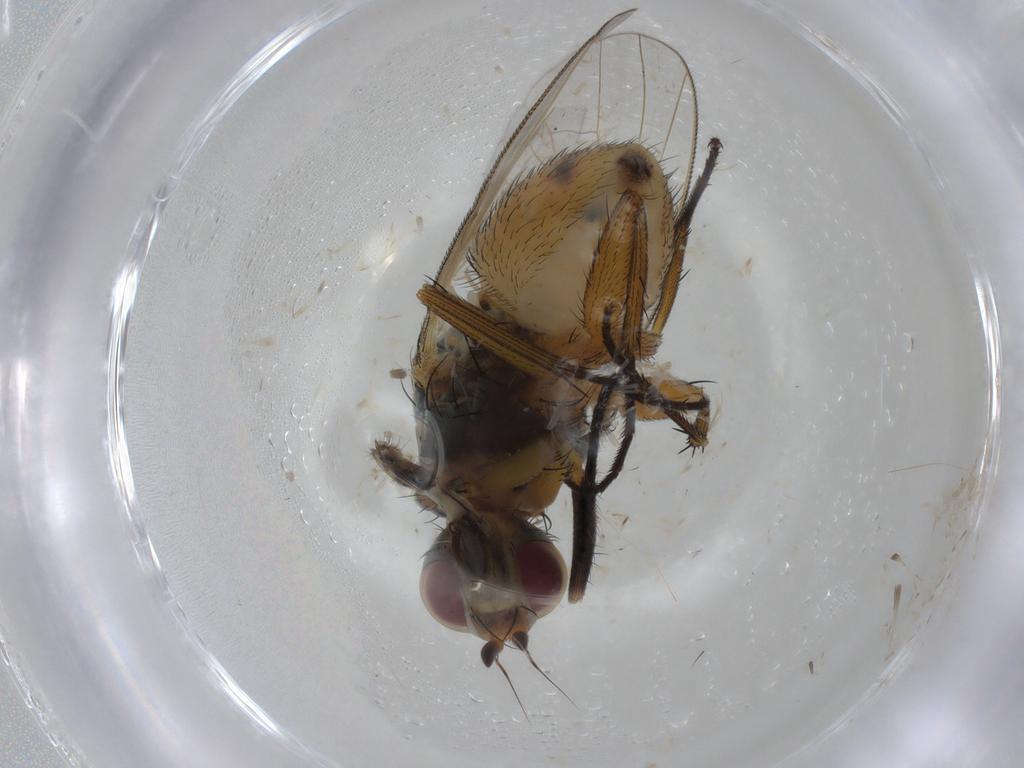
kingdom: Animalia
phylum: Arthropoda
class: Insecta
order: Diptera
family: Muscidae
